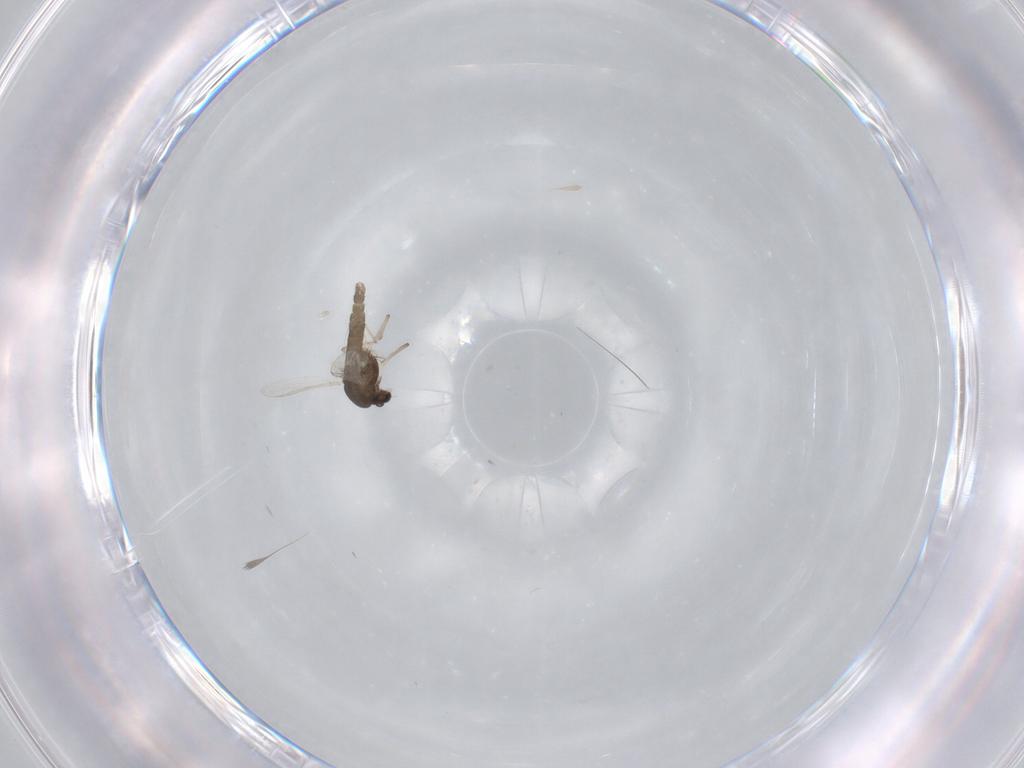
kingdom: Animalia
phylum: Arthropoda
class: Insecta
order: Diptera
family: Chironomidae
